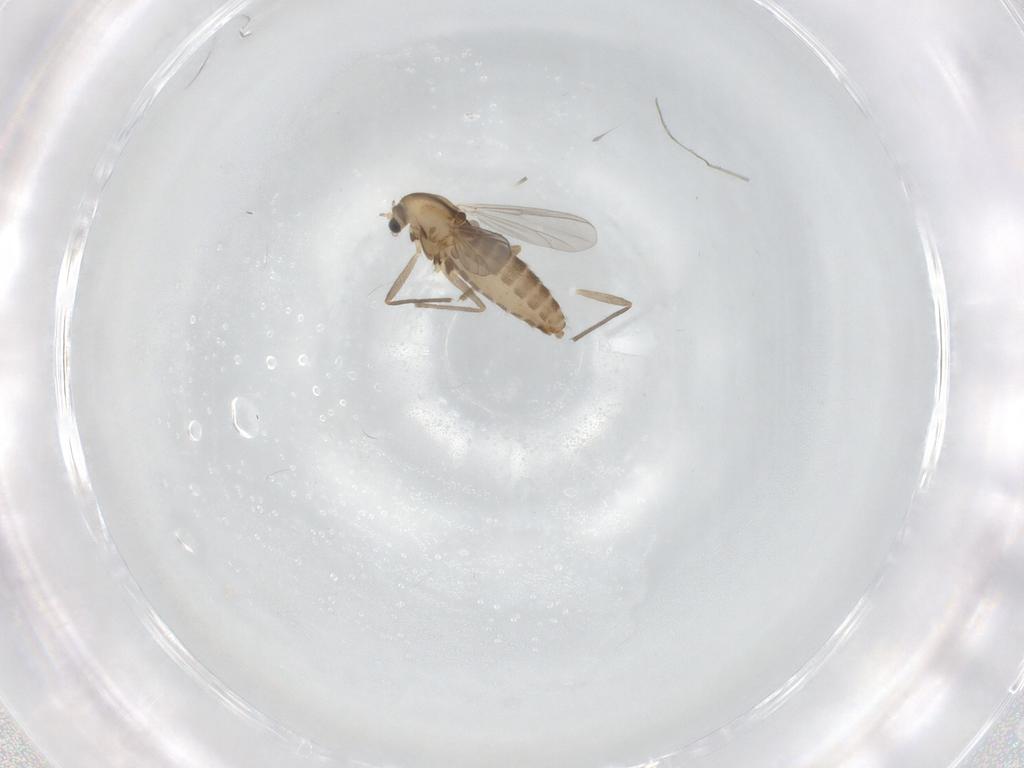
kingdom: Animalia
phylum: Arthropoda
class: Insecta
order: Diptera
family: Chironomidae
